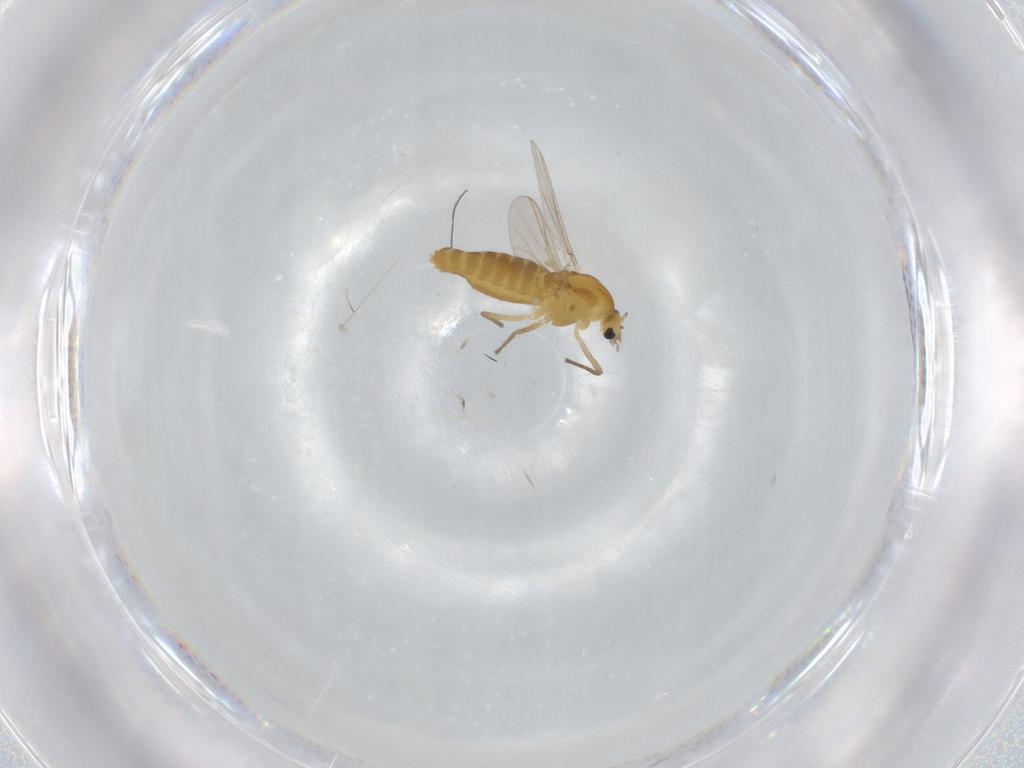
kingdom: Animalia
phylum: Arthropoda
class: Insecta
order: Diptera
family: Chironomidae
